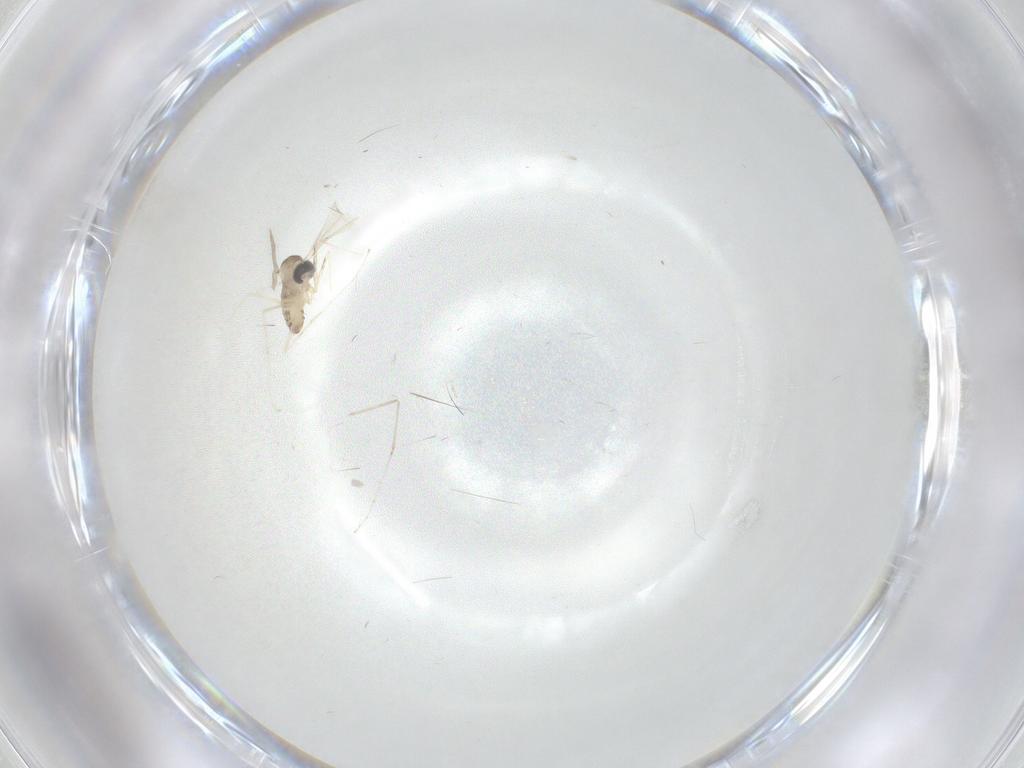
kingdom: Animalia
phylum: Arthropoda
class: Insecta
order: Diptera
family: Cecidomyiidae
